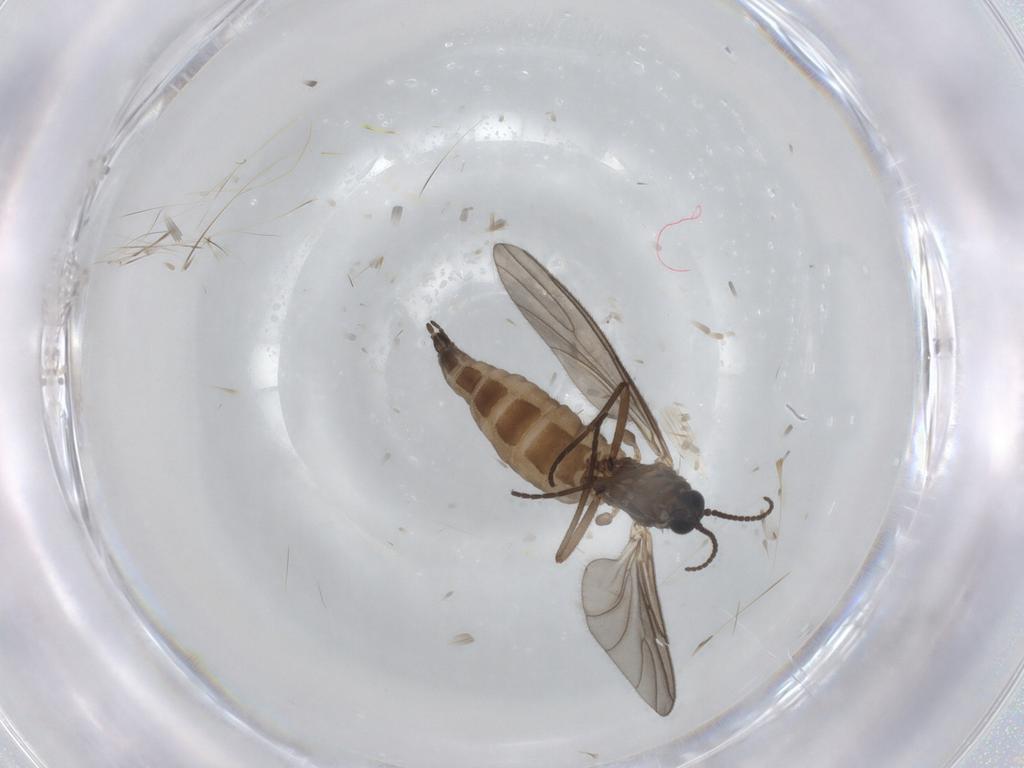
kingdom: Animalia
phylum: Arthropoda
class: Insecta
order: Diptera
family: Sciaridae
